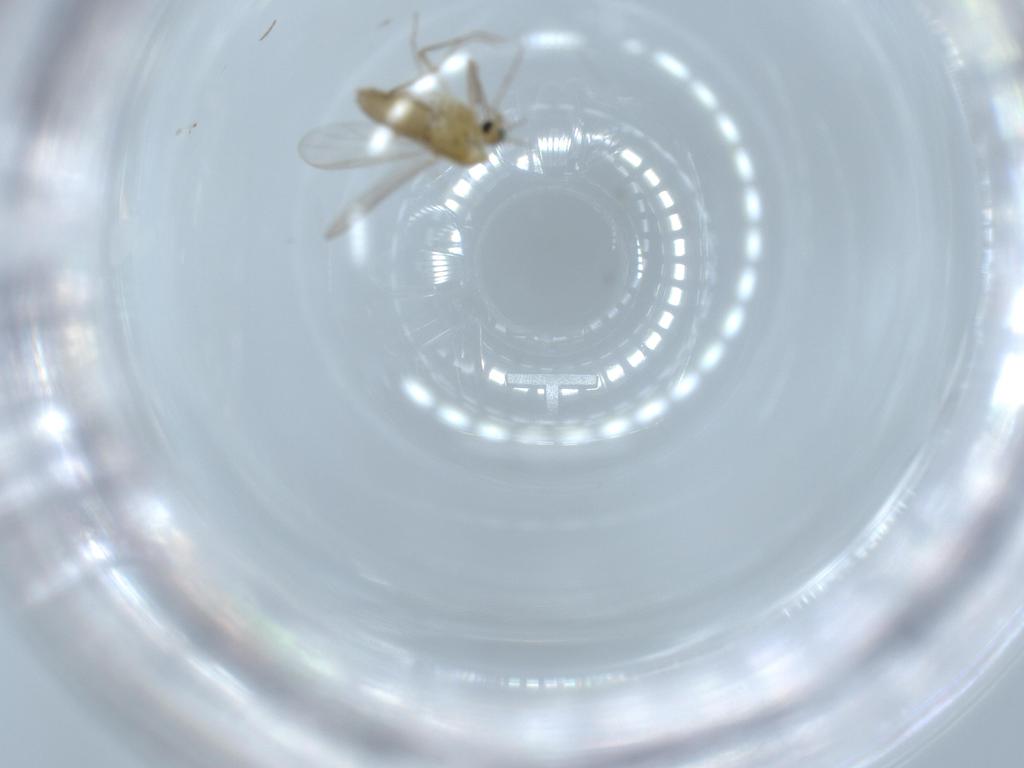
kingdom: Animalia
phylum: Arthropoda
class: Insecta
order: Diptera
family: Chironomidae
